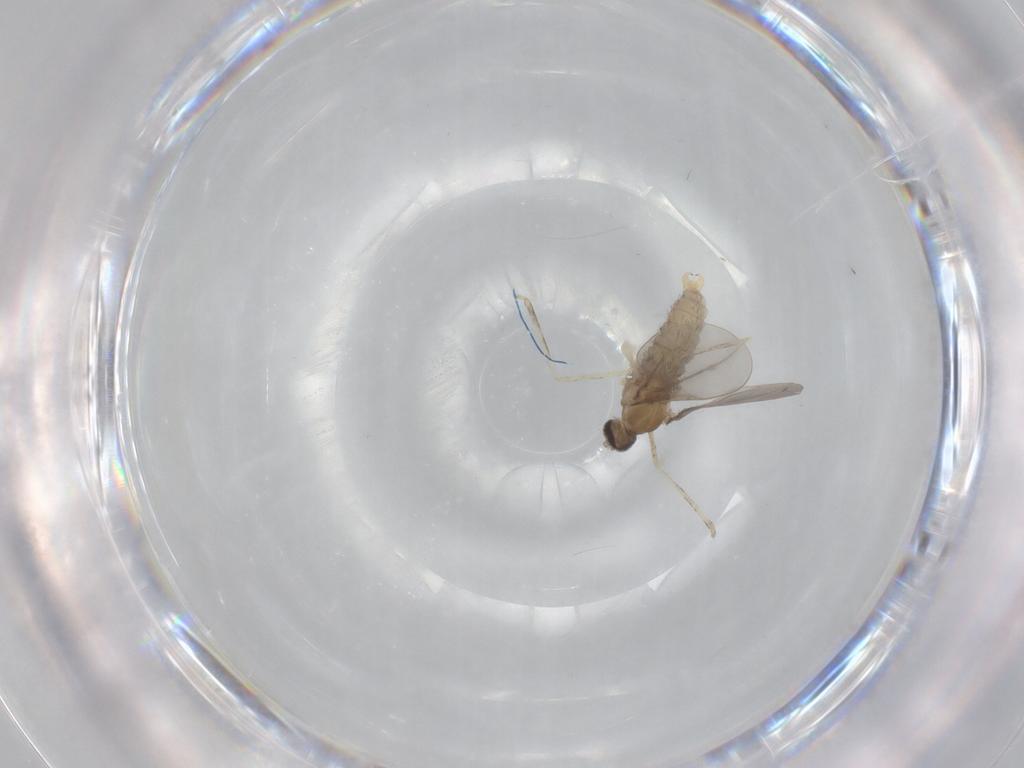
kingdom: Animalia
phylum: Arthropoda
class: Insecta
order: Diptera
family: Cecidomyiidae
